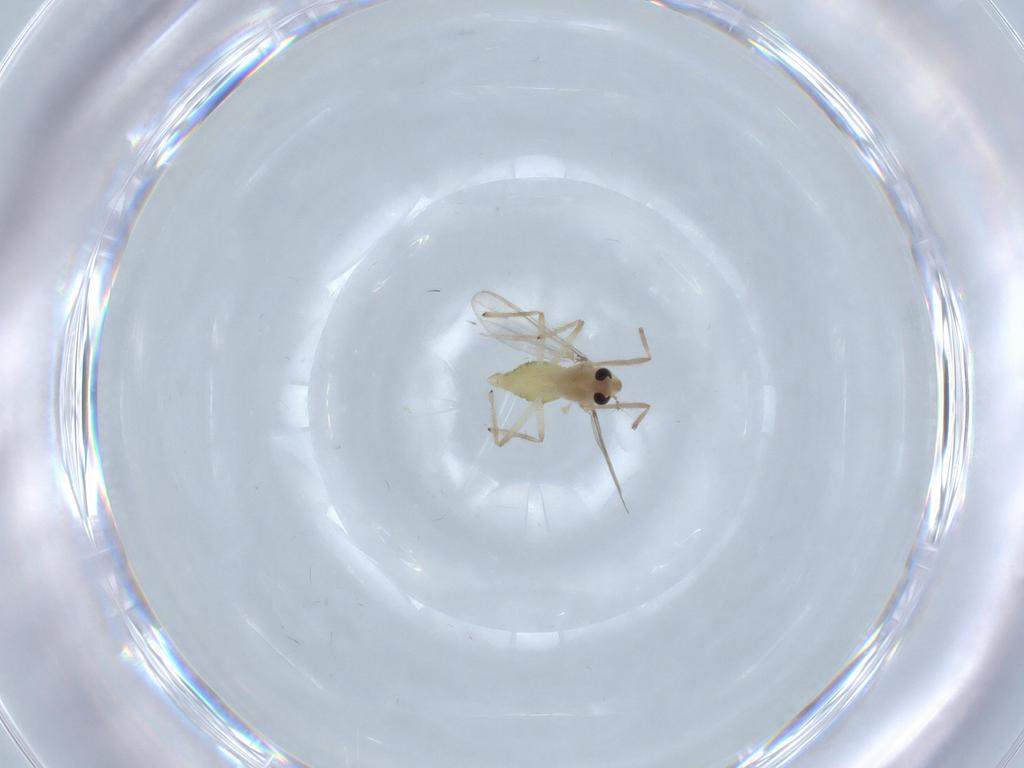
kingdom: Animalia
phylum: Arthropoda
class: Insecta
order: Diptera
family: Chironomidae
